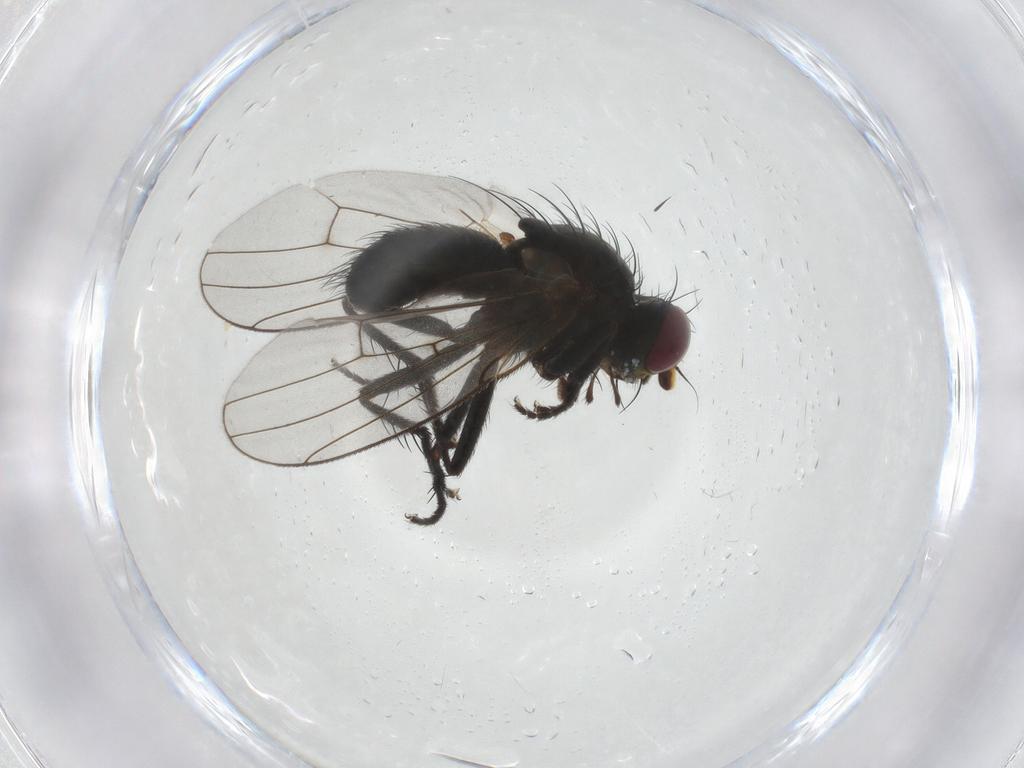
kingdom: Animalia
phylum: Arthropoda
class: Insecta
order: Diptera
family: Muscidae
